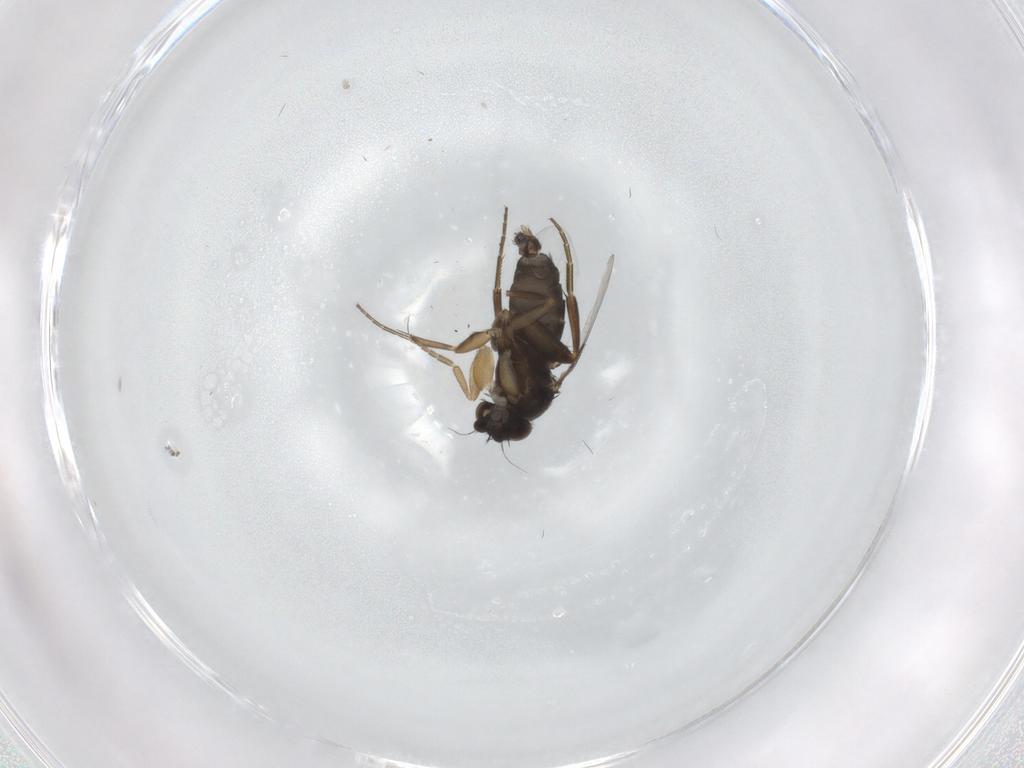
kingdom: Animalia
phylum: Arthropoda
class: Insecta
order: Diptera
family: Phoridae
